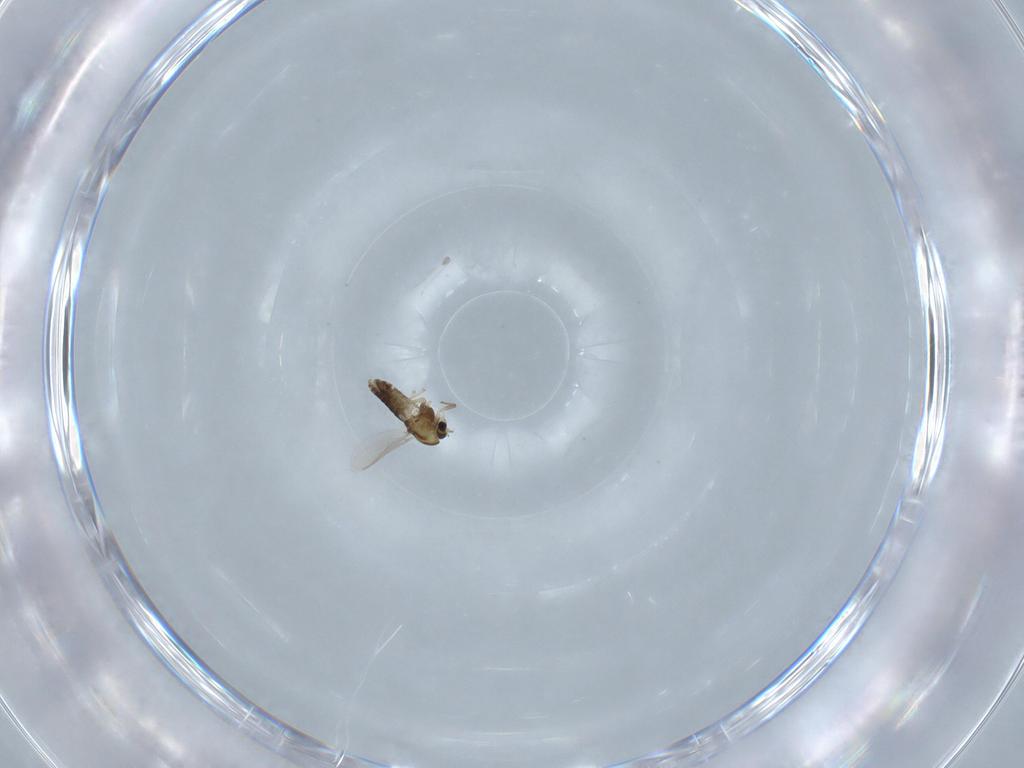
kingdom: Animalia
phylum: Arthropoda
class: Insecta
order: Diptera
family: Chironomidae
